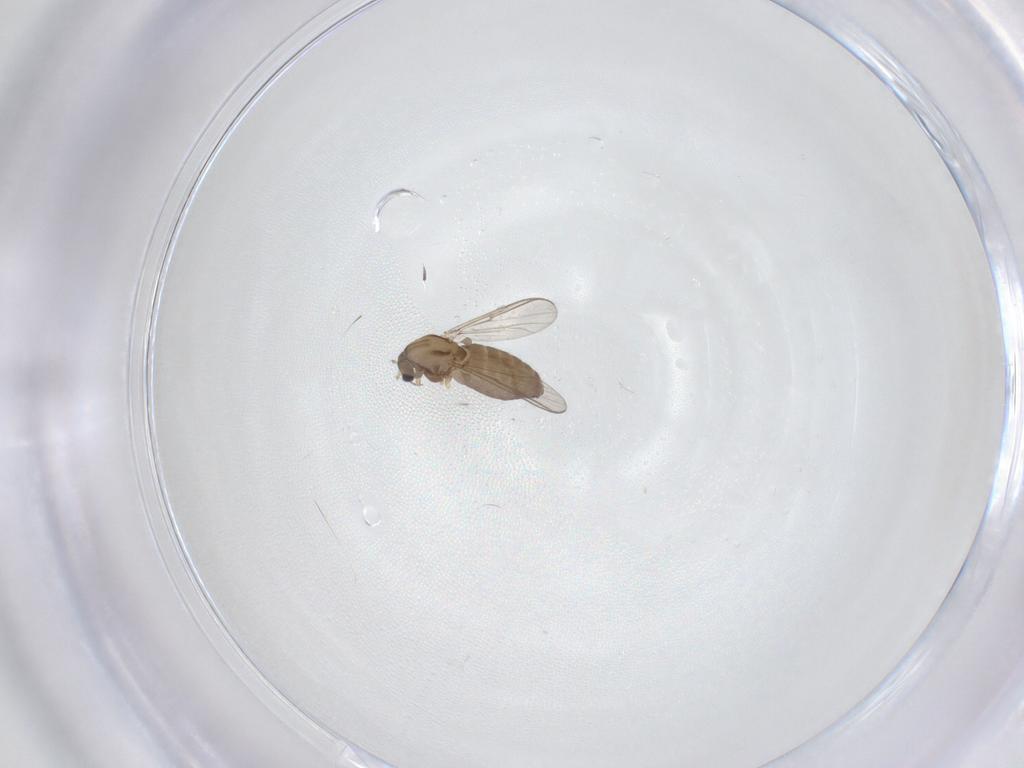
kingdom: Animalia
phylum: Arthropoda
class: Insecta
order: Diptera
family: Chironomidae
